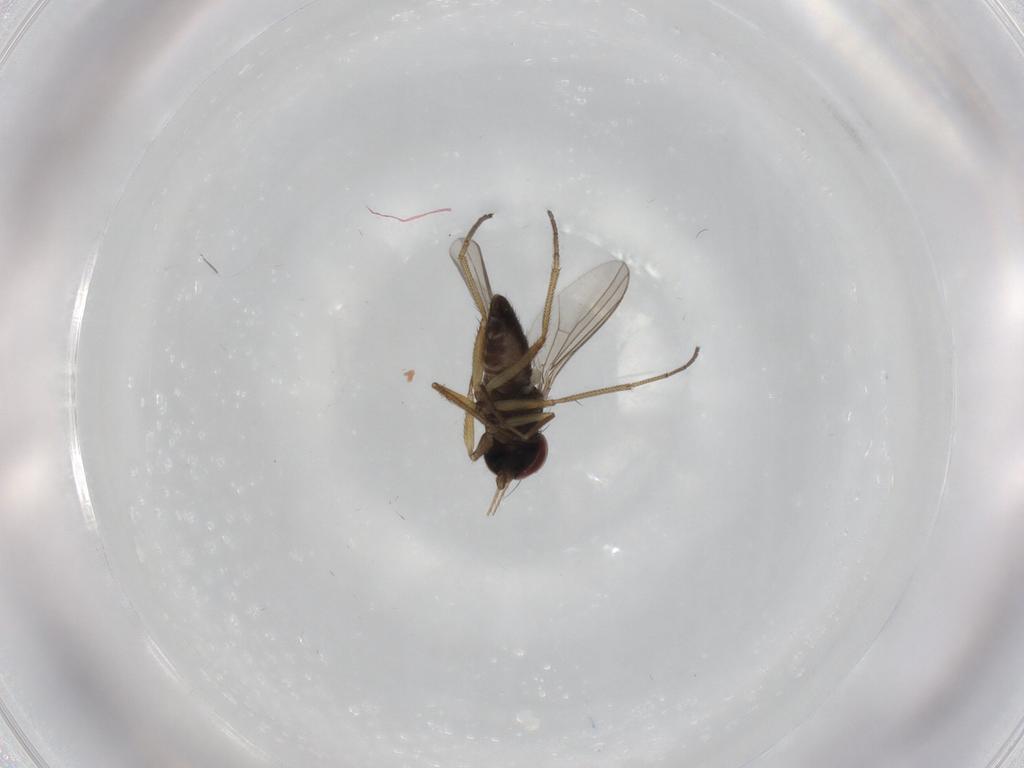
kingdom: Animalia
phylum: Arthropoda
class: Insecta
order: Diptera
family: Dolichopodidae
